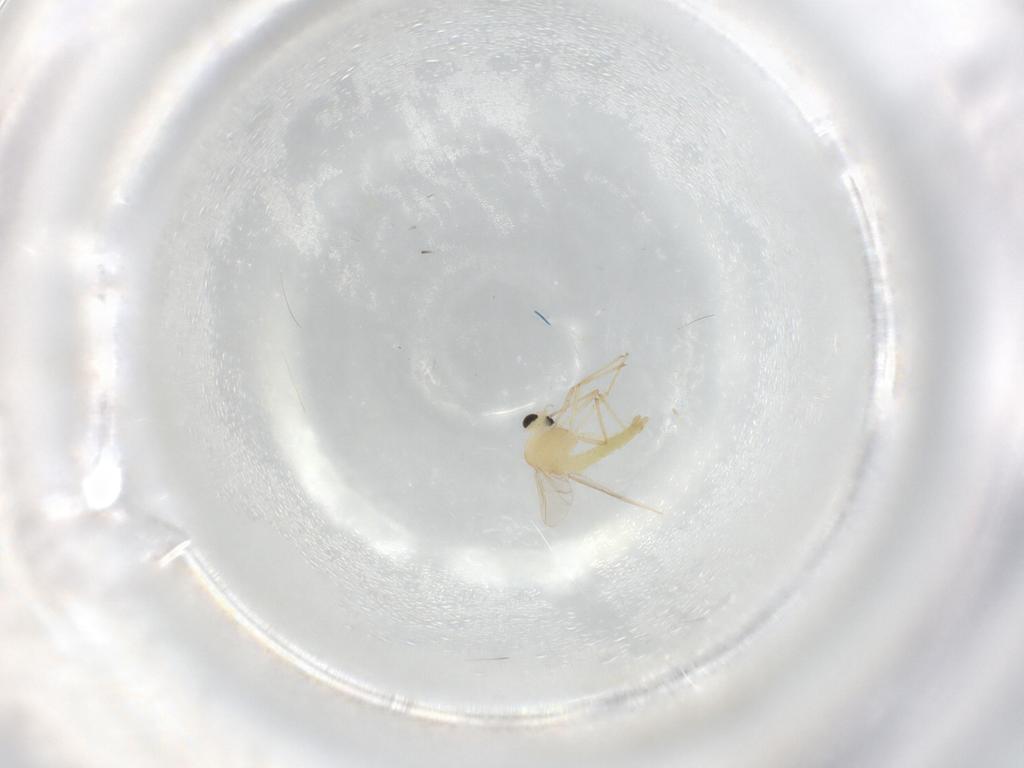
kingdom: Animalia
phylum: Arthropoda
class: Insecta
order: Diptera
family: Chironomidae
